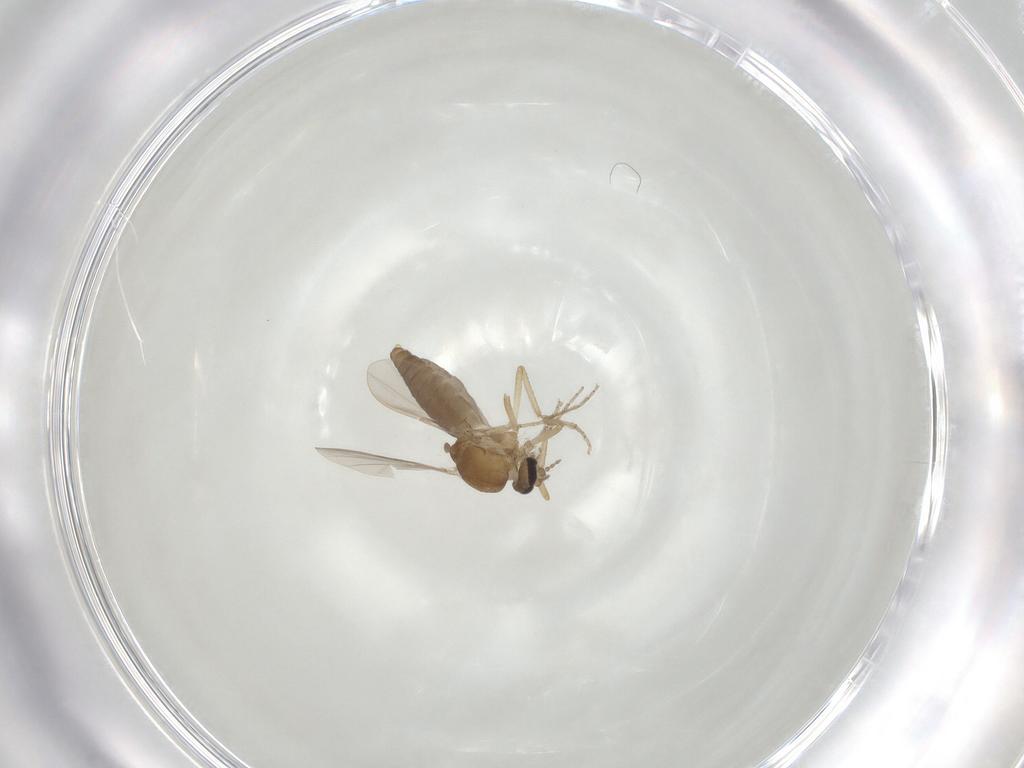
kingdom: Animalia
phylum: Arthropoda
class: Insecta
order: Diptera
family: Ceratopogonidae
